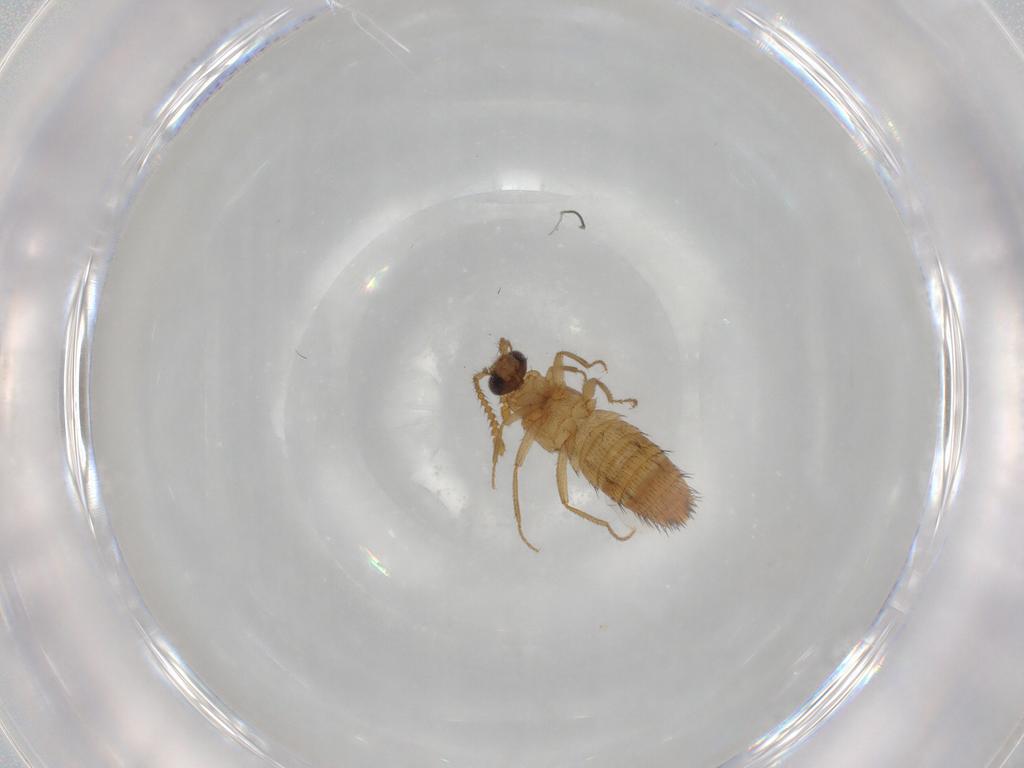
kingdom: Animalia
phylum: Arthropoda
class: Insecta
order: Coleoptera
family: Staphylinidae
